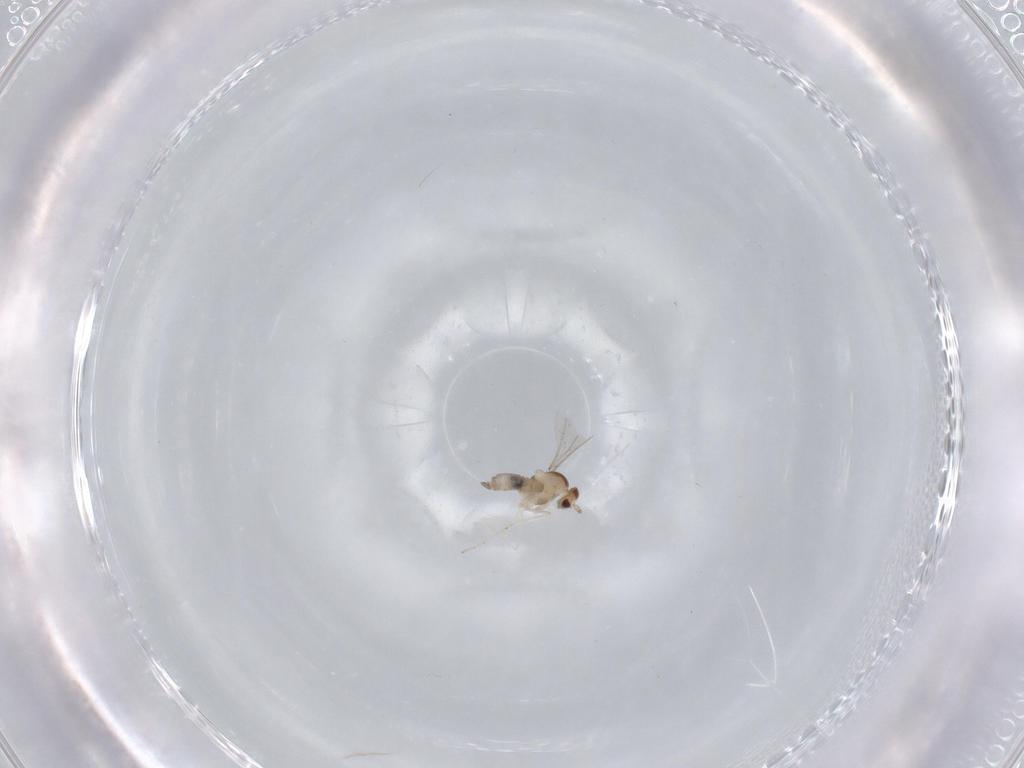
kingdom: Animalia
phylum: Arthropoda
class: Insecta
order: Diptera
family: Cecidomyiidae
